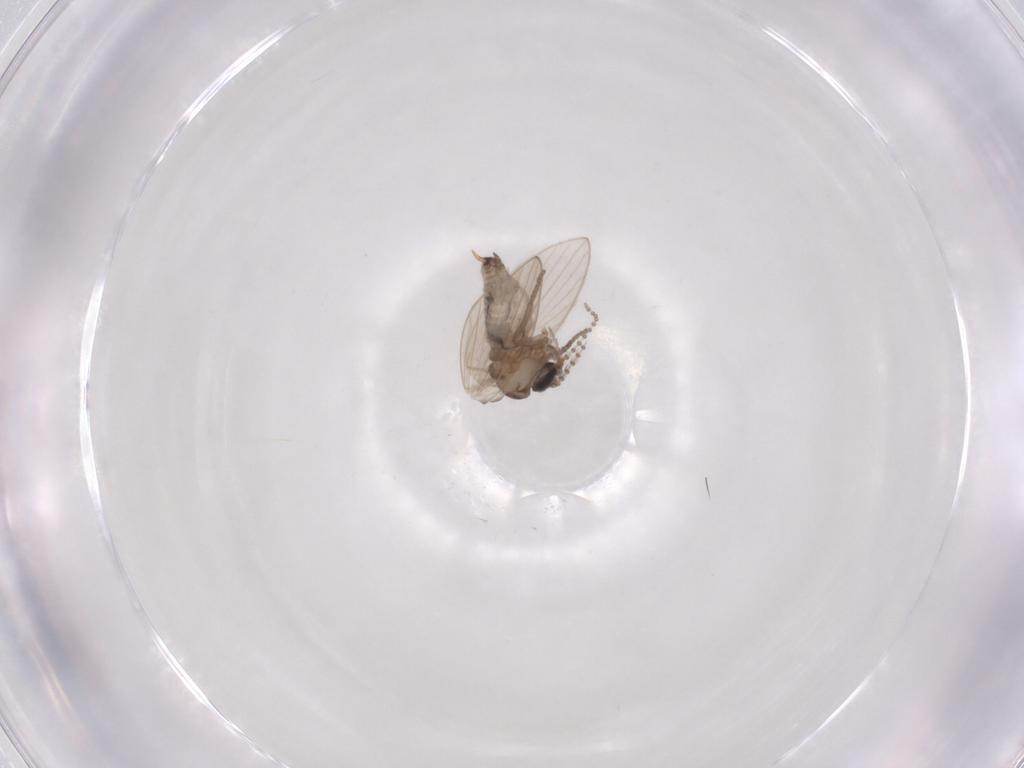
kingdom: Animalia
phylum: Arthropoda
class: Insecta
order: Diptera
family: Psychodidae
